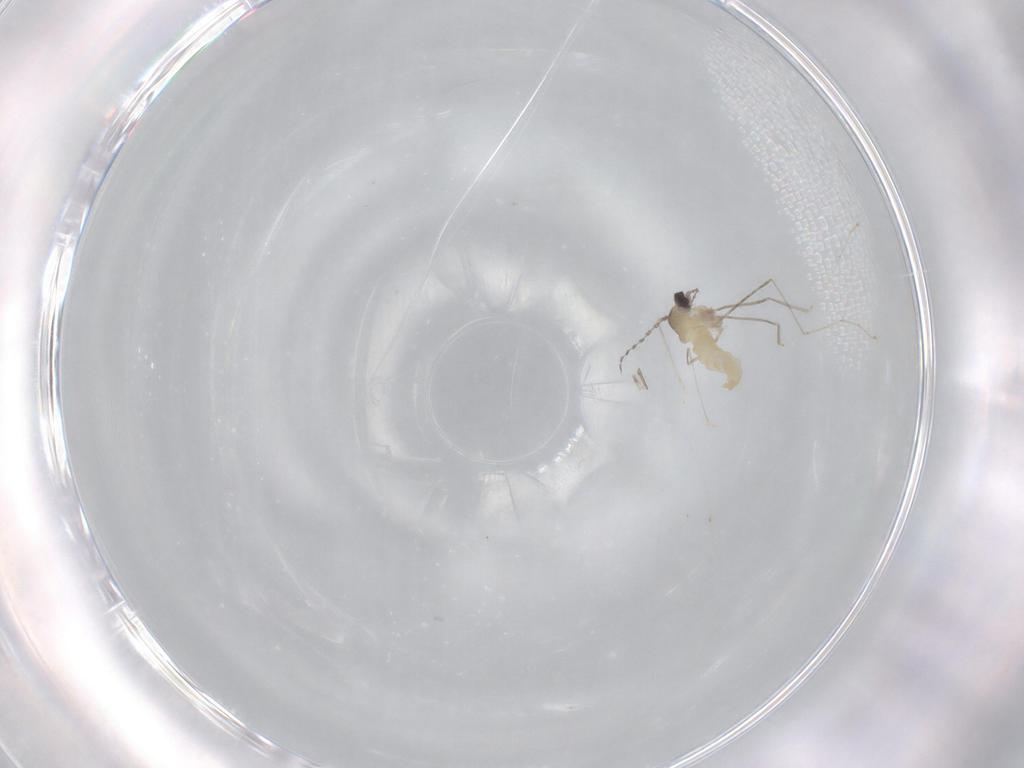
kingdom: Animalia
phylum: Arthropoda
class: Insecta
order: Diptera
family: Cecidomyiidae
